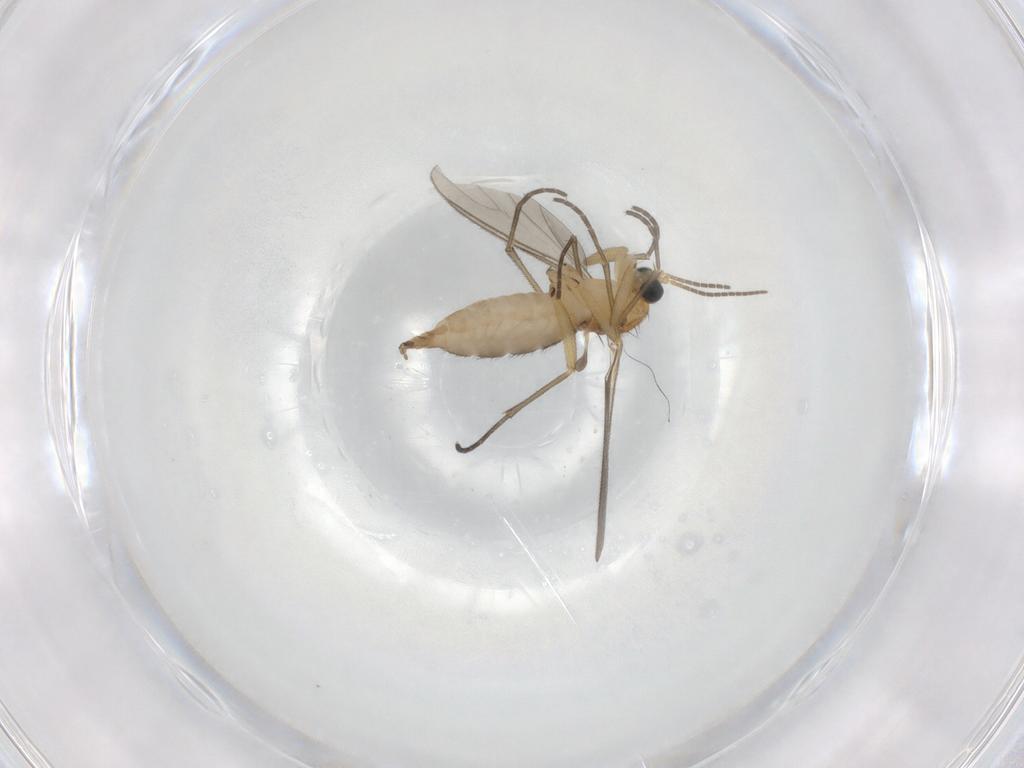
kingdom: Animalia
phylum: Arthropoda
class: Insecta
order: Diptera
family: Sciaridae
